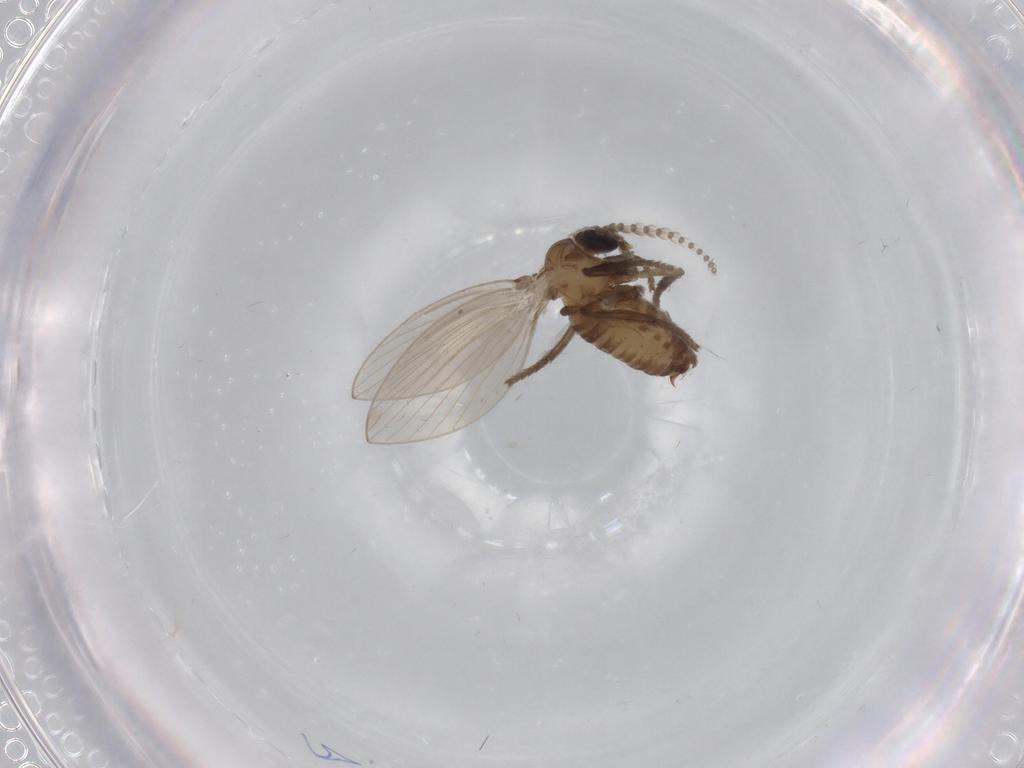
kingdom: Animalia
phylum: Arthropoda
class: Insecta
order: Diptera
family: Psychodidae
